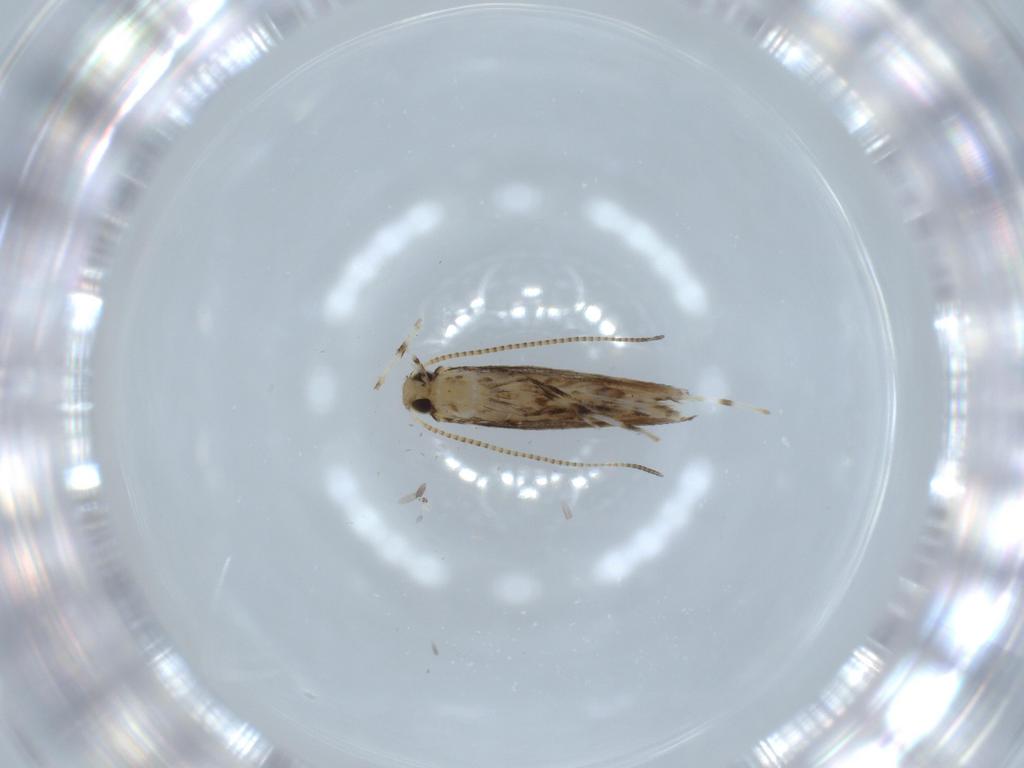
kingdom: Animalia
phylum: Arthropoda
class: Insecta
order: Lepidoptera
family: Gracillariidae
